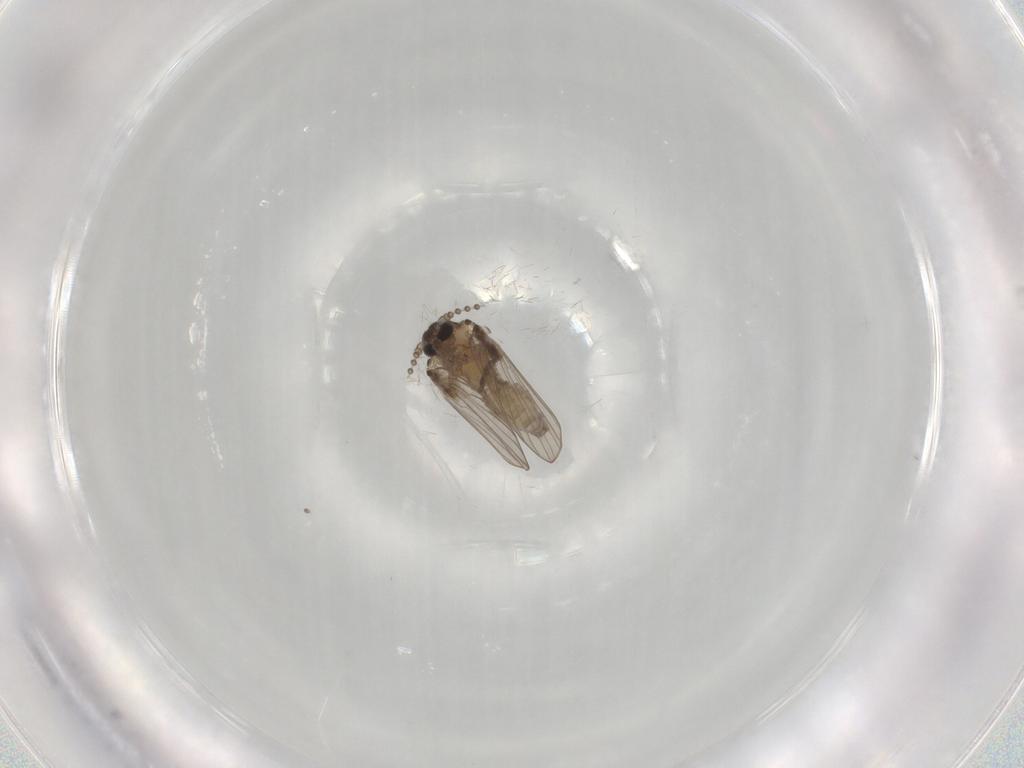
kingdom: Animalia
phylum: Arthropoda
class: Insecta
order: Diptera
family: Psychodidae
